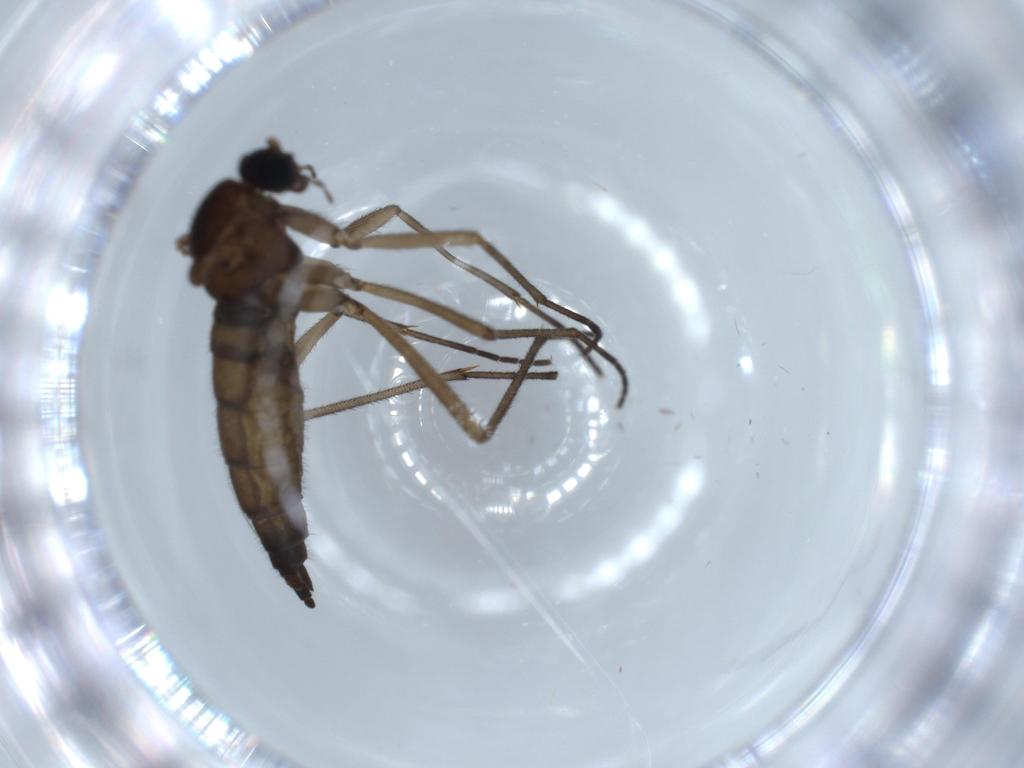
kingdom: Animalia
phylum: Arthropoda
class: Insecta
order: Diptera
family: Sciaridae
